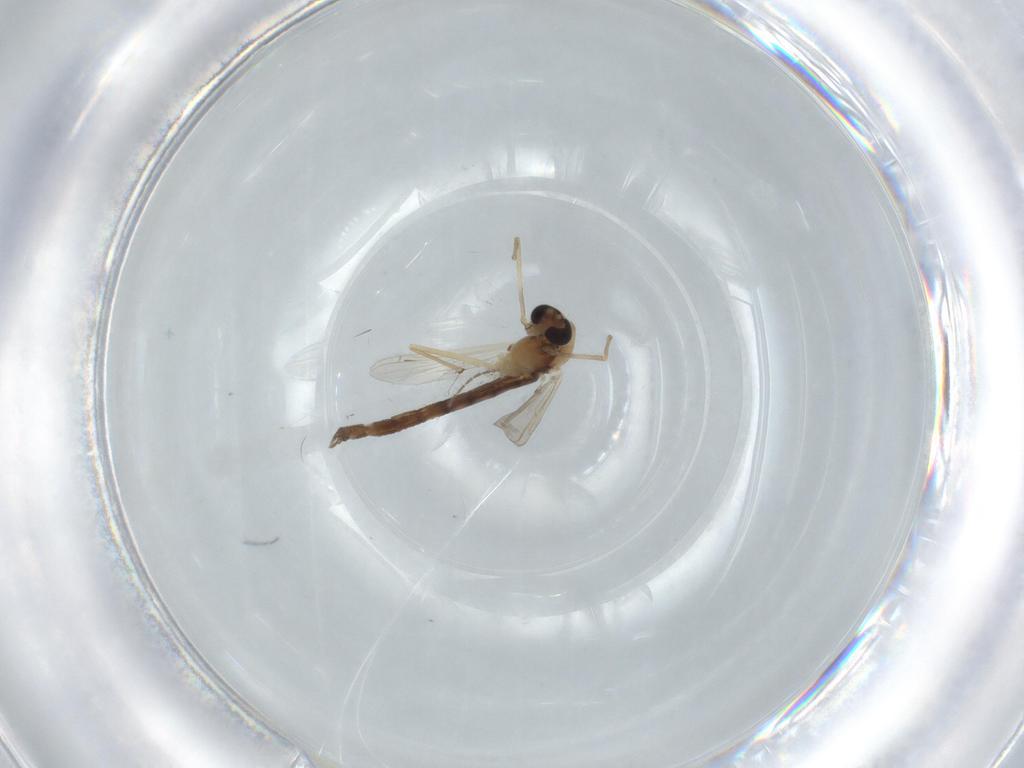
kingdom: Animalia
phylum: Arthropoda
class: Insecta
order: Diptera
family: Chironomidae
